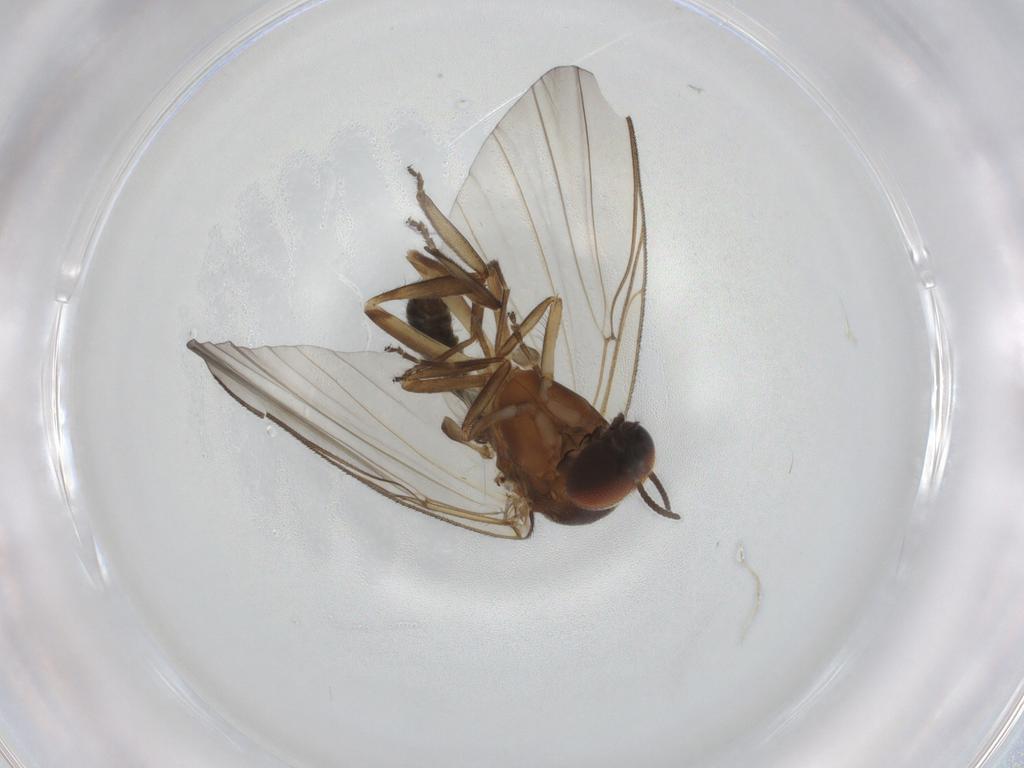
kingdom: Animalia
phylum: Arthropoda
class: Insecta
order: Diptera
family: Simuliidae
